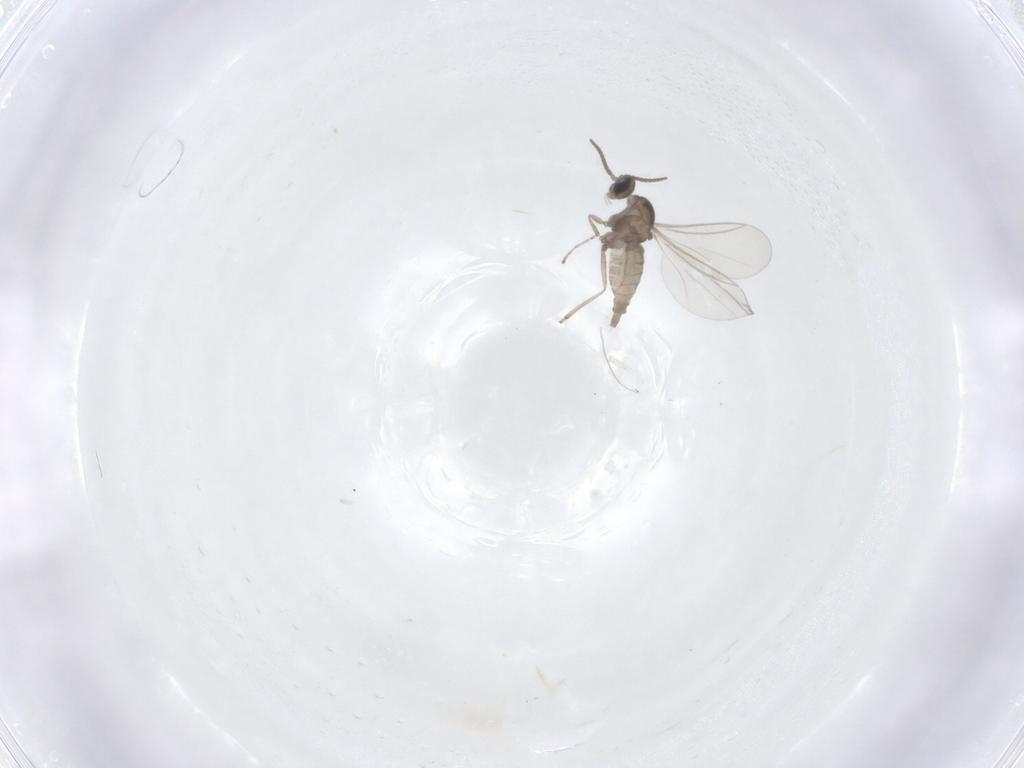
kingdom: Animalia
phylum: Arthropoda
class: Insecta
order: Diptera
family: Cecidomyiidae
